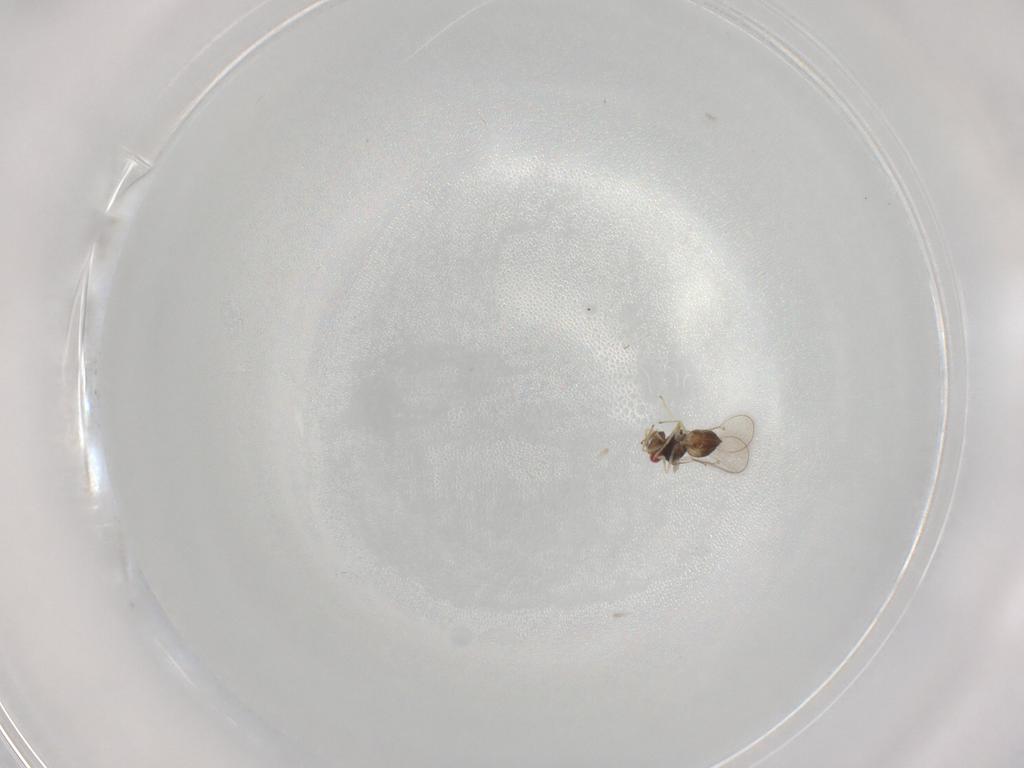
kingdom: Animalia
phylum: Arthropoda
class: Insecta
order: Hymenoptera
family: Eulophidae
